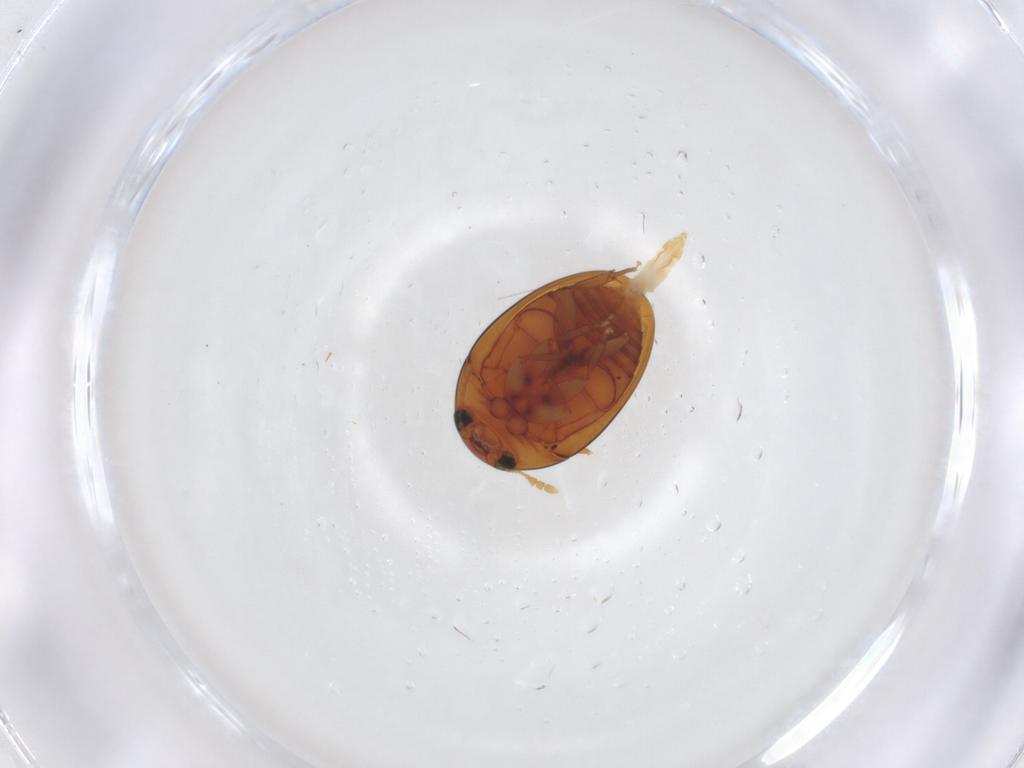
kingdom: Animalia
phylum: Arthropoda
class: Insecta
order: Coleoptera
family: Phalacridae
